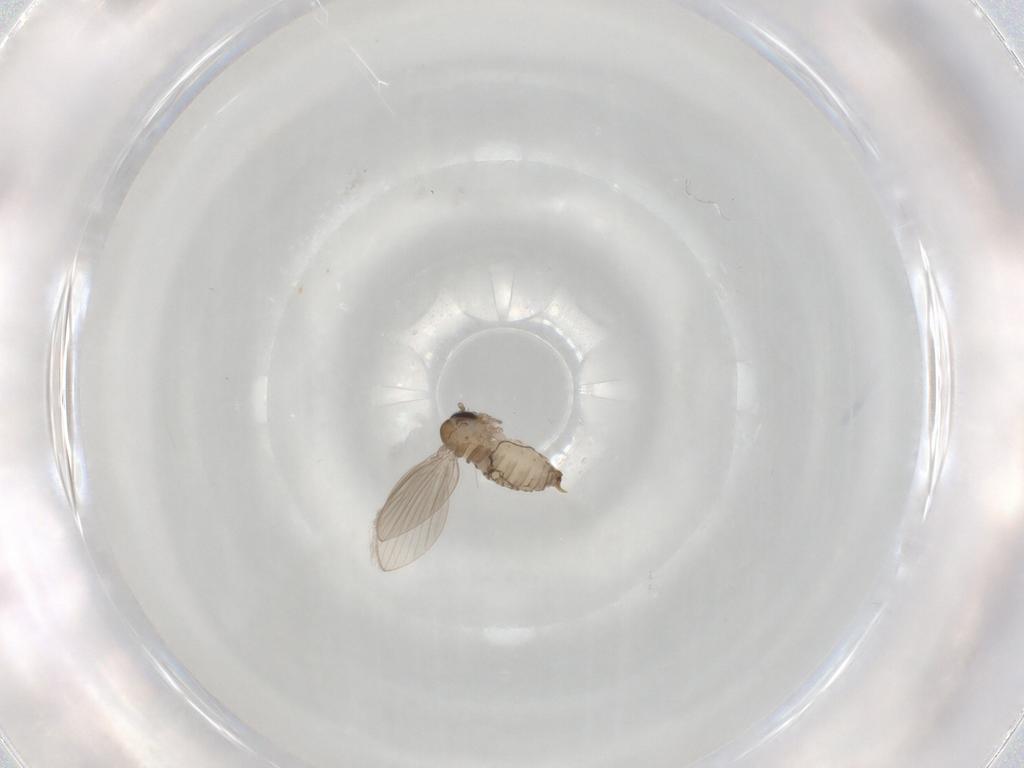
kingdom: Animalia
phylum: Arthropoda
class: Insecta
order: Diptera
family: Psychodidae
